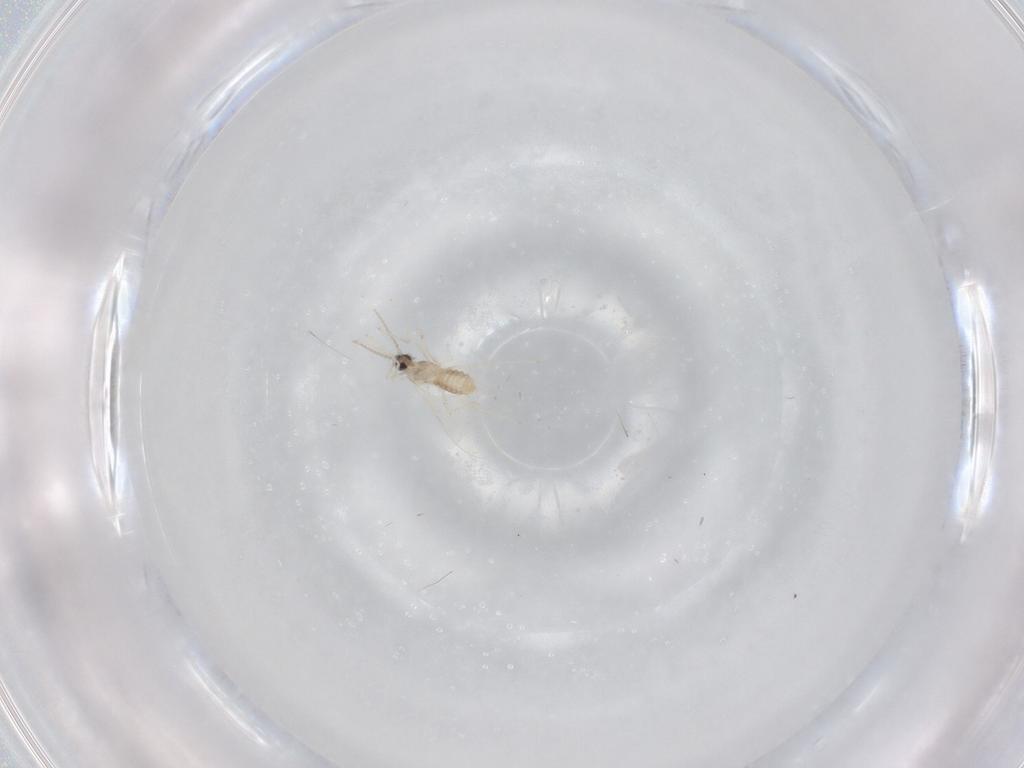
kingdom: Animalia
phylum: Arthropoda
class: Insecta
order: Diptera
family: Cecidomyiidae
